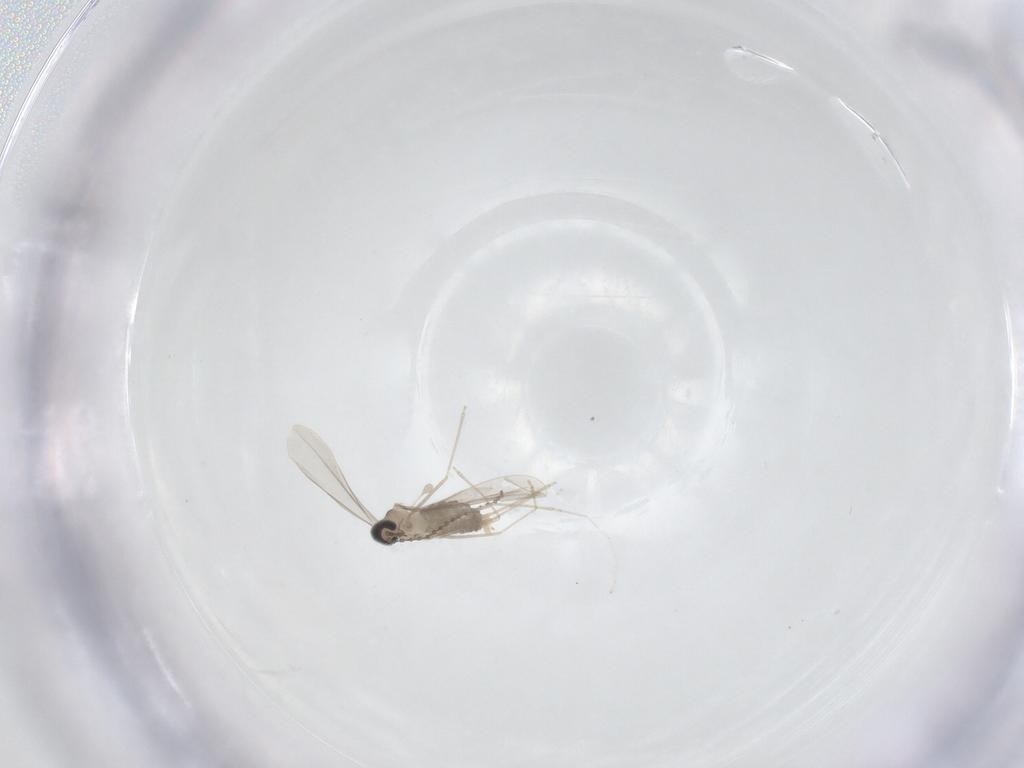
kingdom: Animalia
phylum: Arthropoda
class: Insecta
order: Diptera
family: Cecidomyiidae
